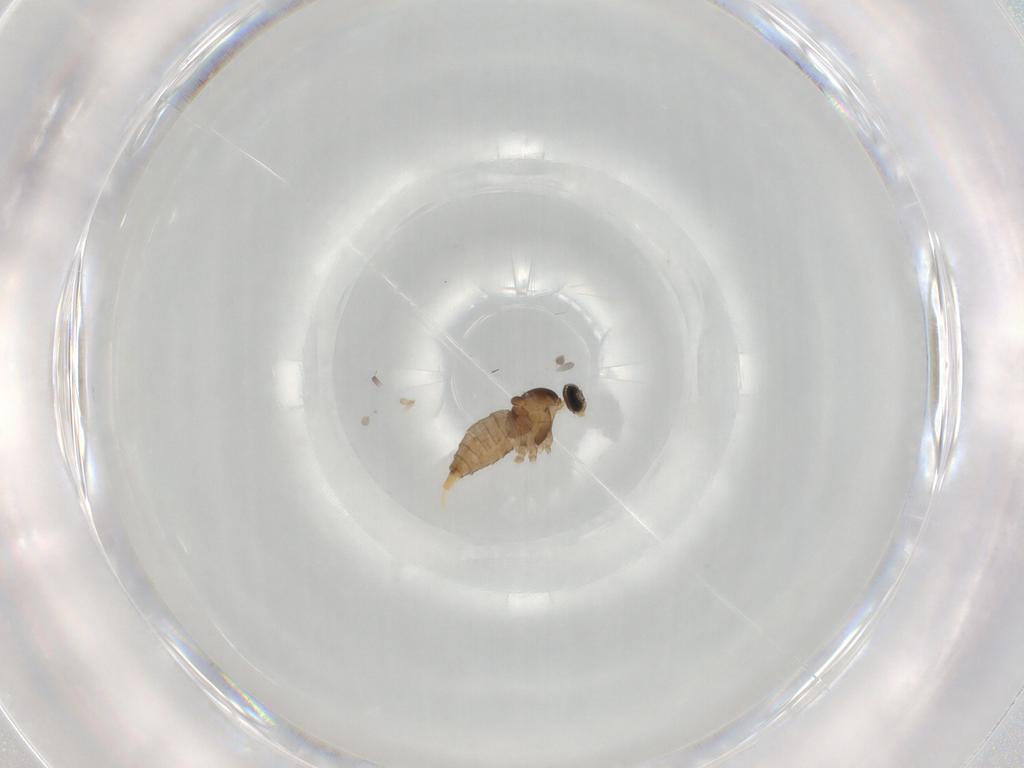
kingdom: Animalia
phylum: Arthropoda
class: Insecta
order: Diptera
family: Cecidomyiidae
